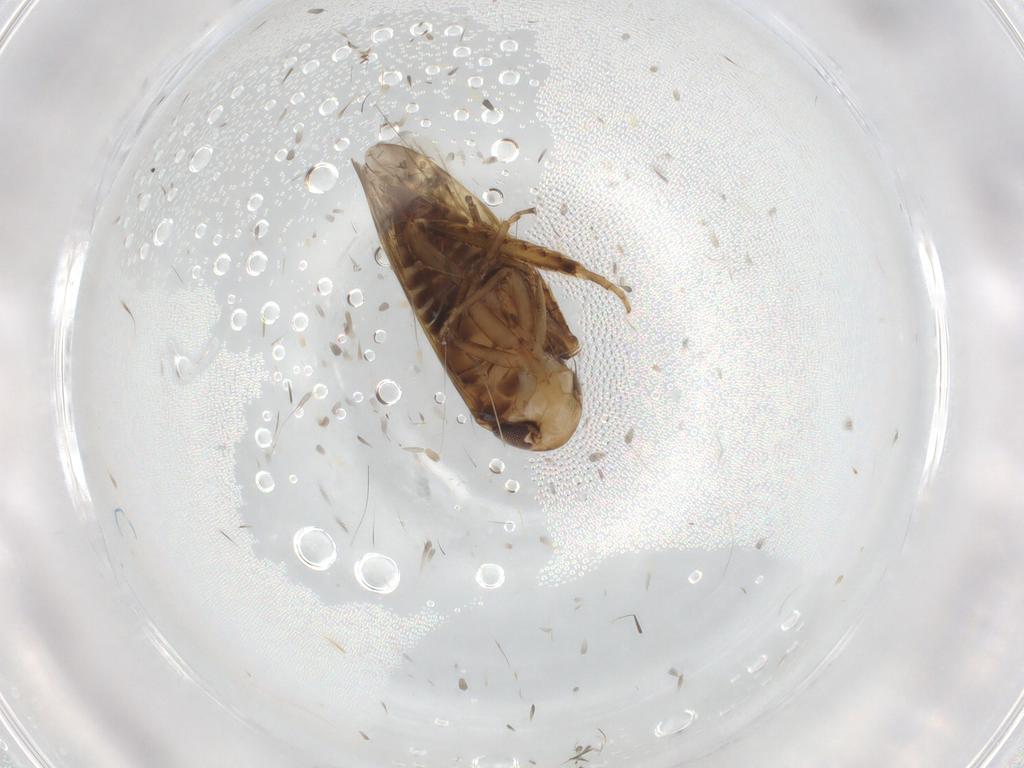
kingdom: Animalia
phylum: Arthropoda
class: Insecta
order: Hemiptera
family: Cicadellidae
